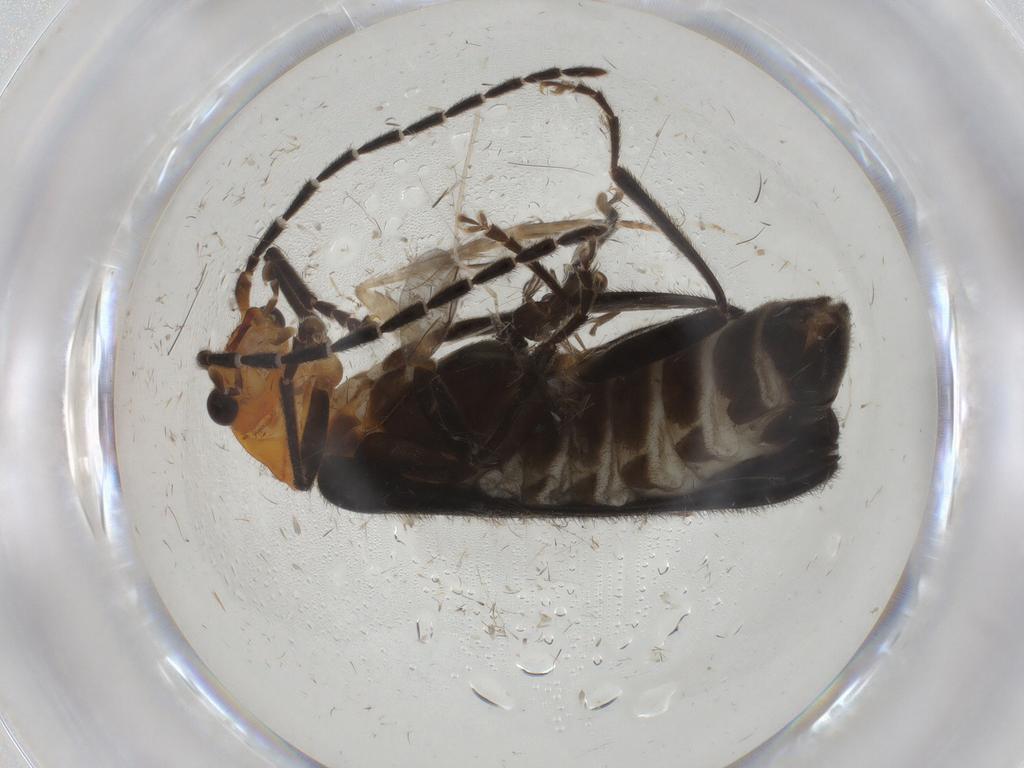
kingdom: Animalia
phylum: Arthropoda
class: Insecta
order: Coleoptera
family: Cantharidae
